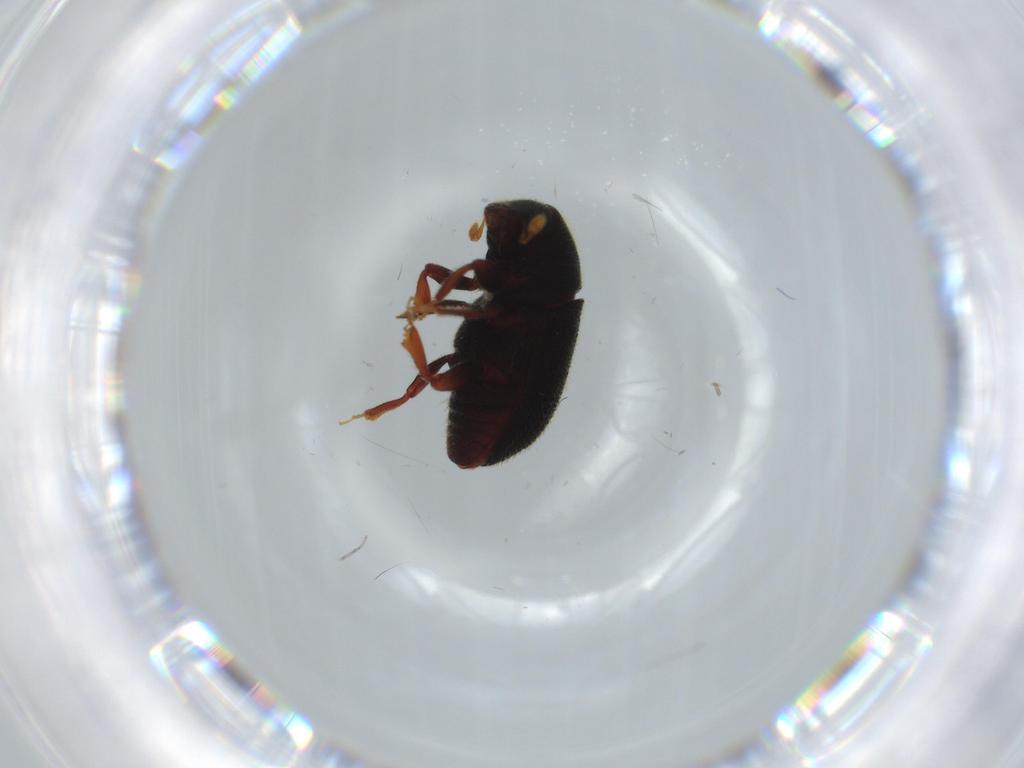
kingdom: Animalia
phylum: Arthropoda
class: Insecta
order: Coleoptera
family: Curculionidae
